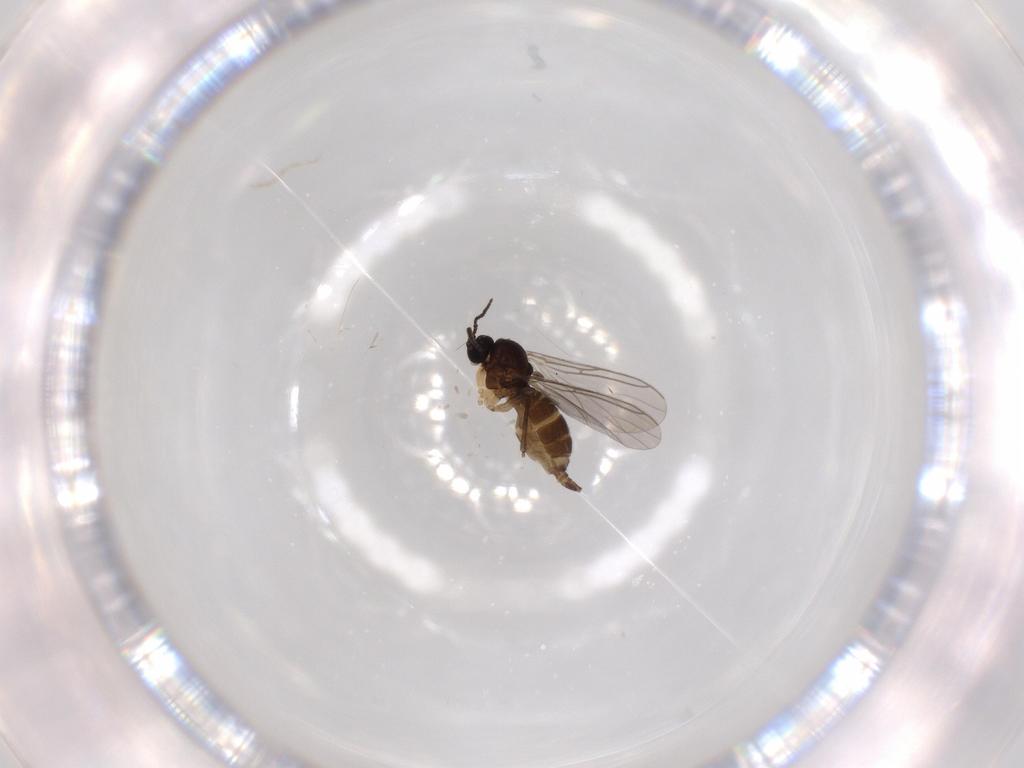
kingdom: Animalia
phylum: Arthropoda
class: Insecta
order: Diptera
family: Sciaridae
